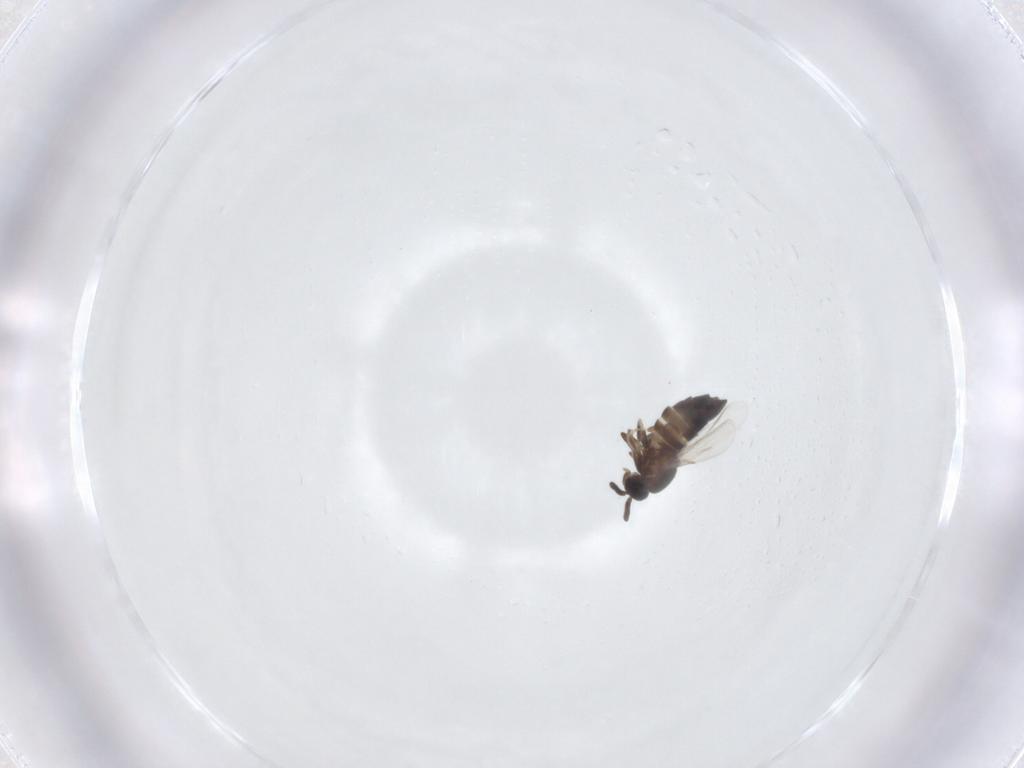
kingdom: Animalia
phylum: Arthropoda
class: Insecta
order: Diptera
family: Scatopsidae
